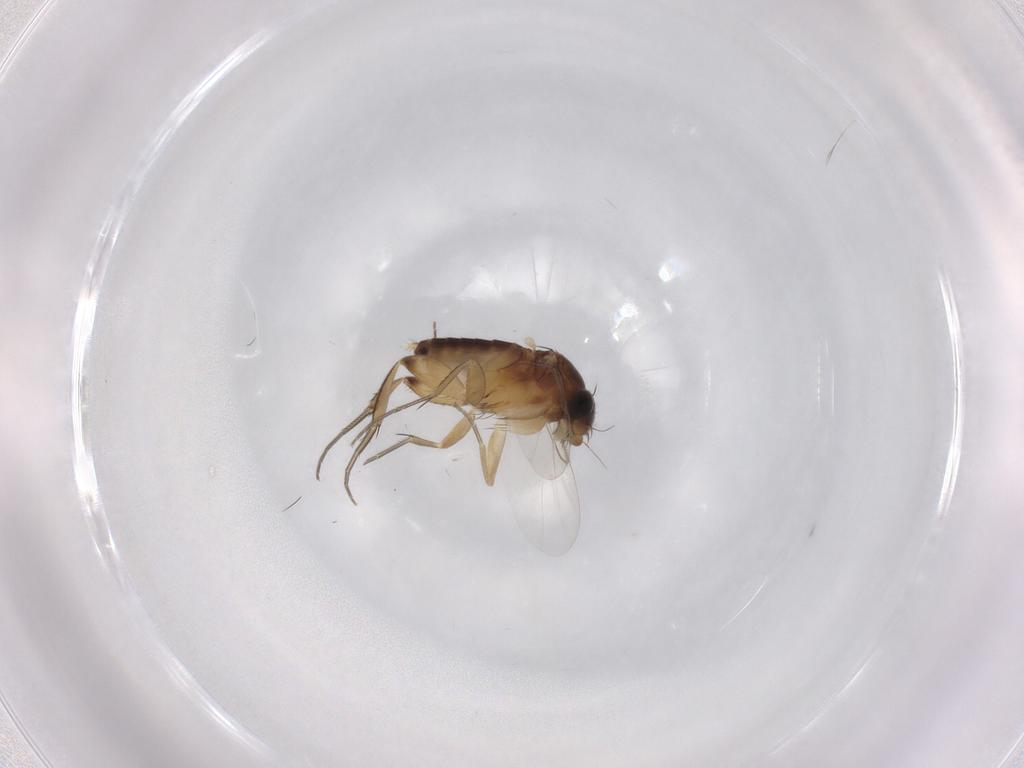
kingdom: Animalia
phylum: Arthropoda
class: Insecta
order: Diptera
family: Phoridae
